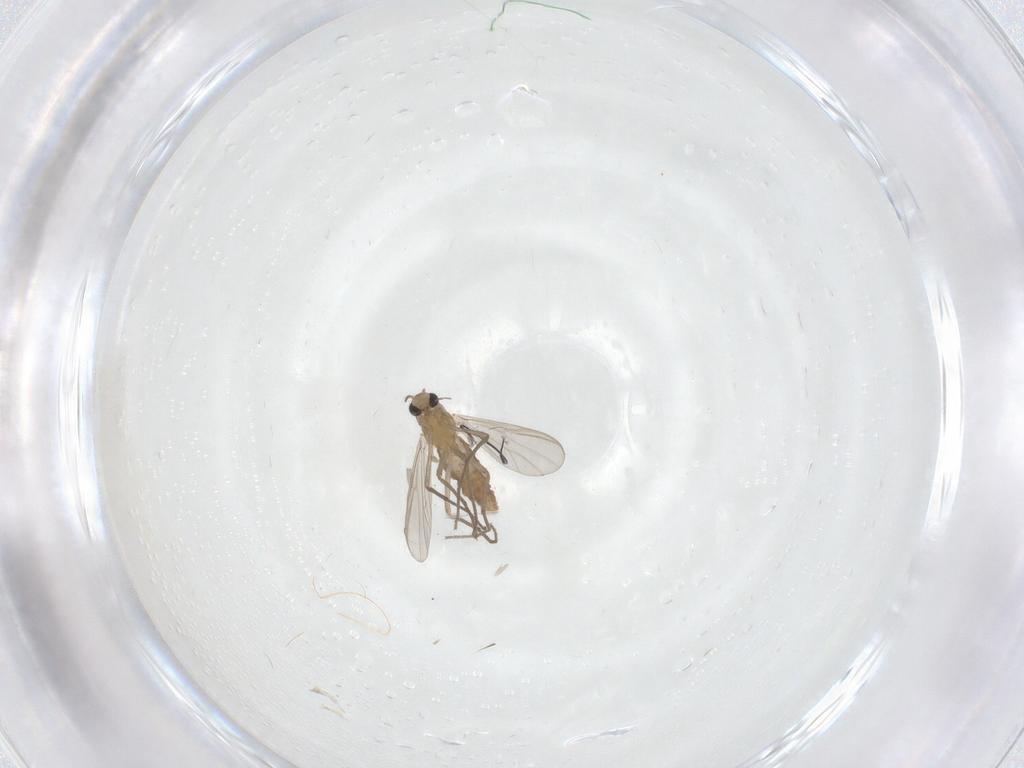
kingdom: Animalia
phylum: Arthropoda
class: Insecta
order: Diptera
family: Chironomidae
